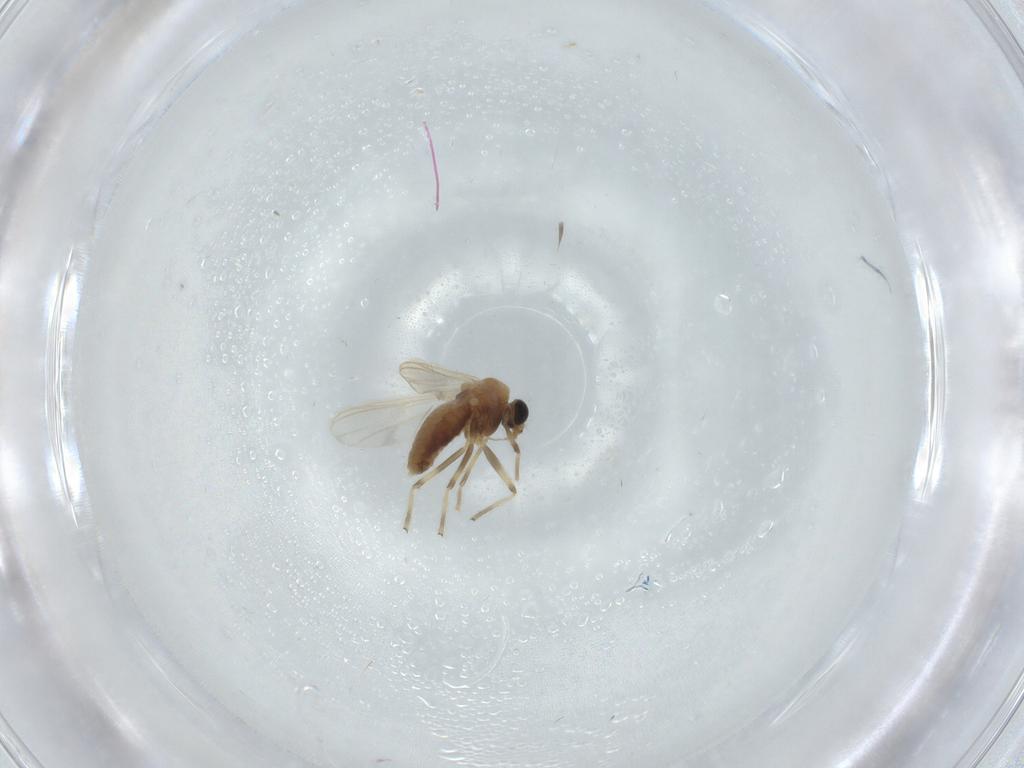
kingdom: Animalia
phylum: Arthropoda
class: Insecta
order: Diptera
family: Chironomidae
